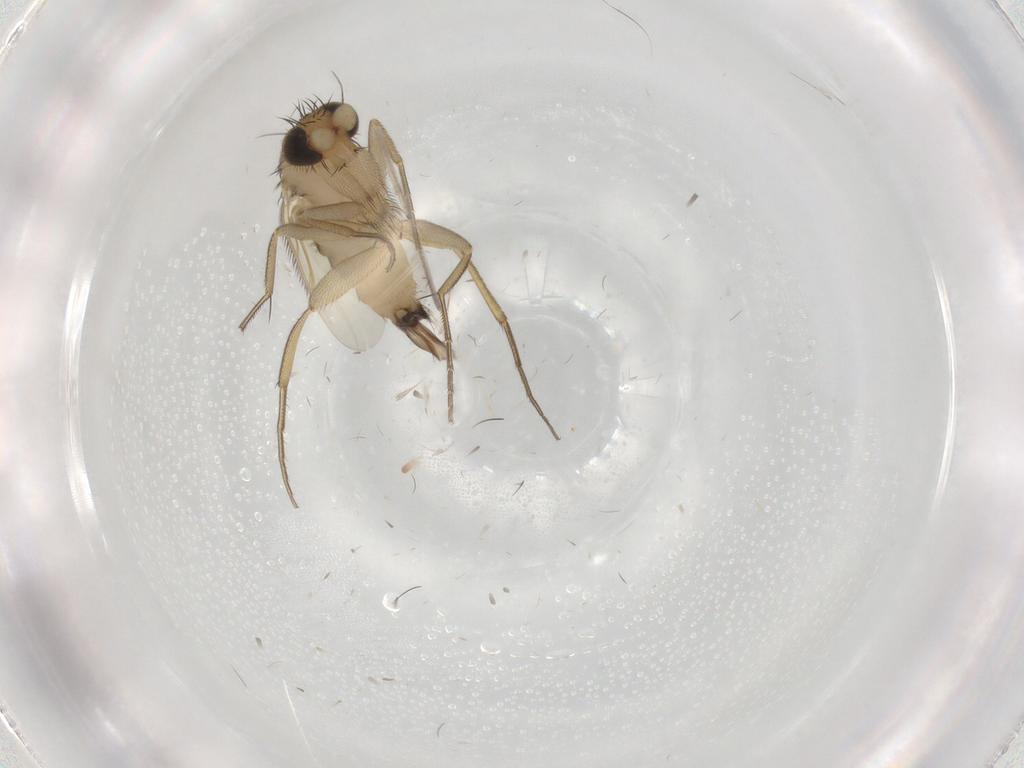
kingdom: Animalia
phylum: Arthropoda
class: Insecta
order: Diptera
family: Phoridae
